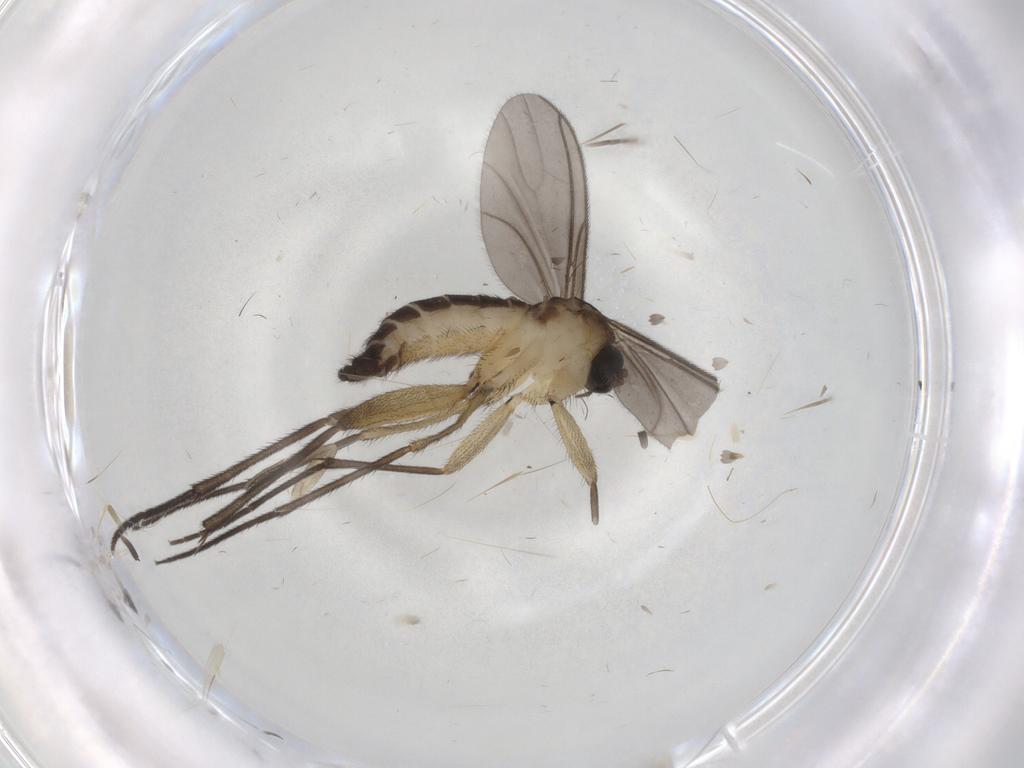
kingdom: Animalia
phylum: Arthropoda
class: Insecta
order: Diptera
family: Sciaridae
